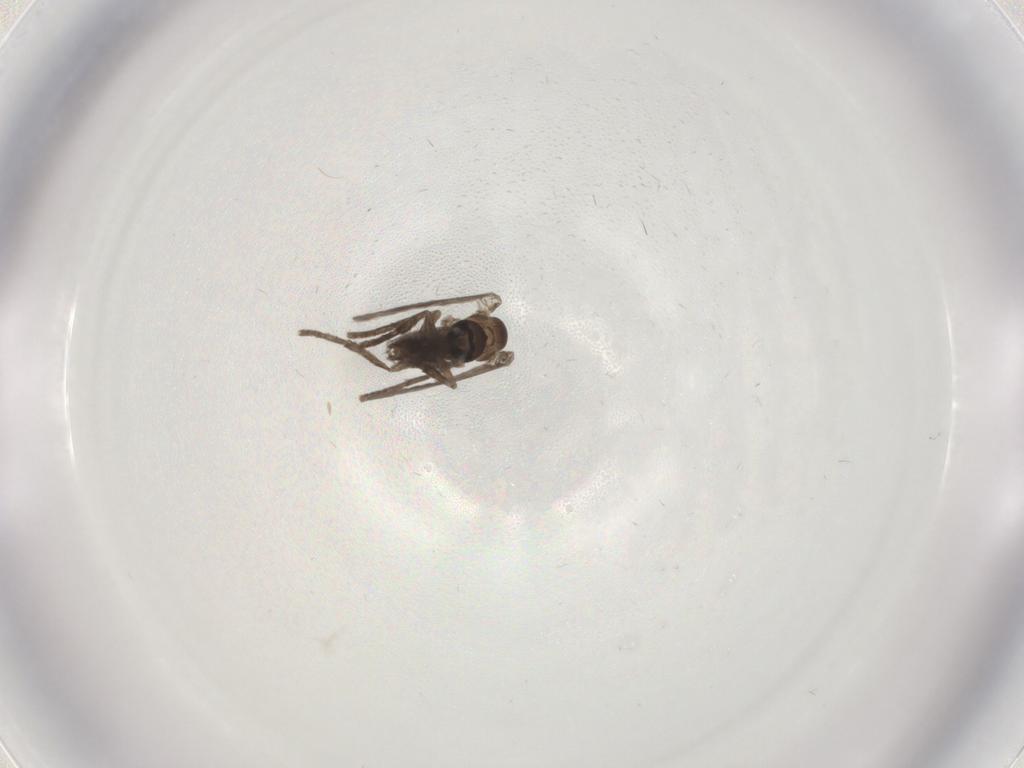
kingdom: Animalia
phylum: Arthropoda
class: Insecta
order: Diptera
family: Psychodidae
